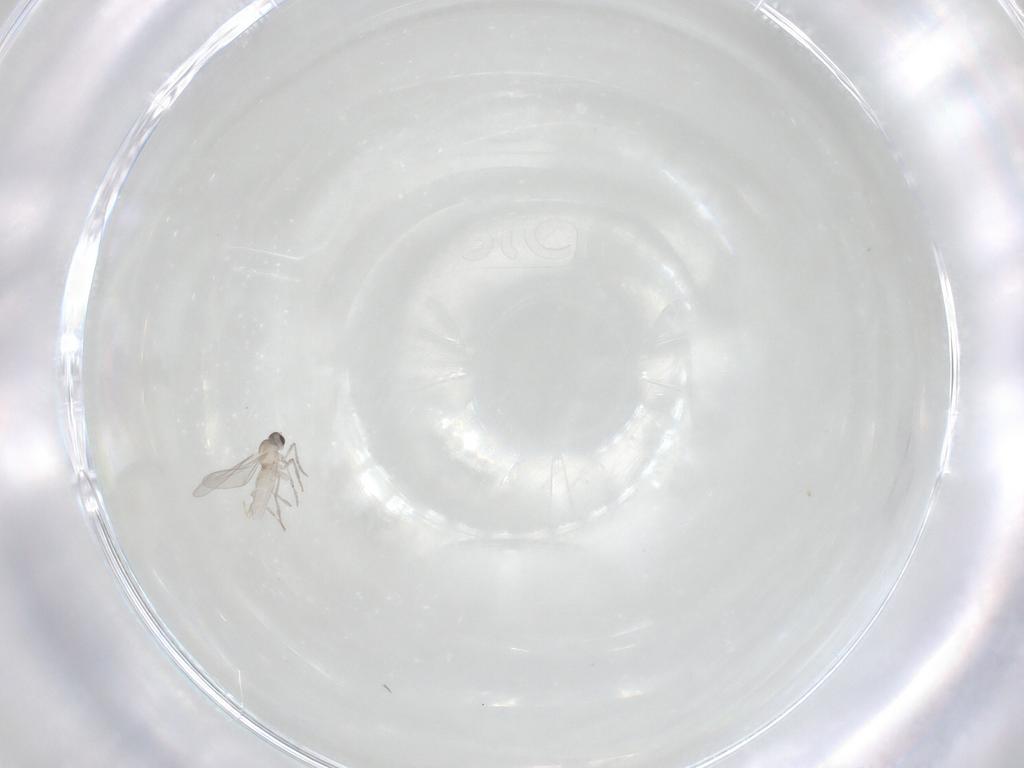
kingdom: Animalia
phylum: Arthropoda
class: Insecta
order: Diptera
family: Cecidomyiidae
